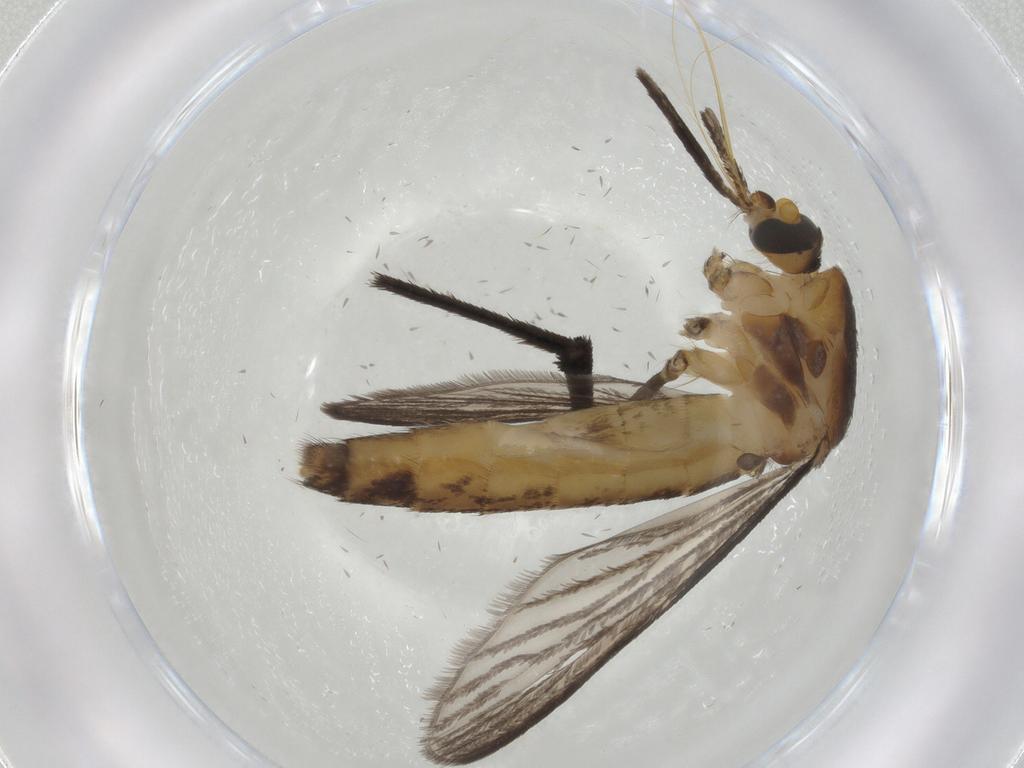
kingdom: Animalia
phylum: Arthropoda
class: Insecta
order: Diptera
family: Phoridae
